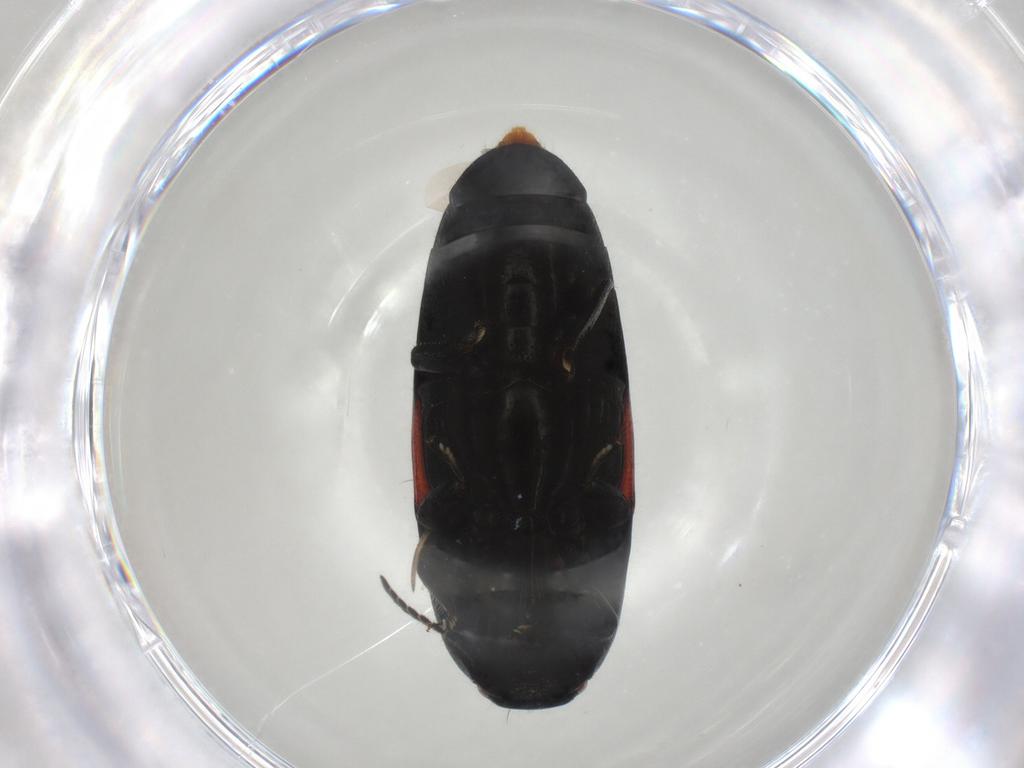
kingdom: Animalia
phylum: Arthropoda
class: Insecta
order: Coleoptera
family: Elateridae
